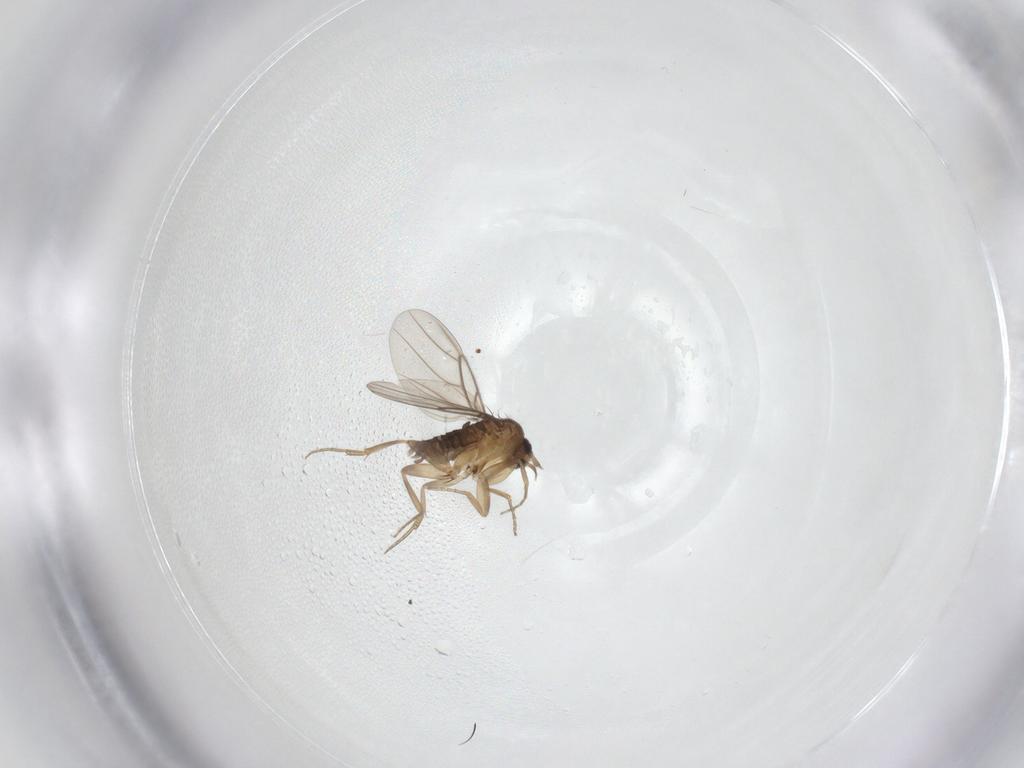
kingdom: Animalia
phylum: Arthropoda
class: Insecta
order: Diptera
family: Phoridae
